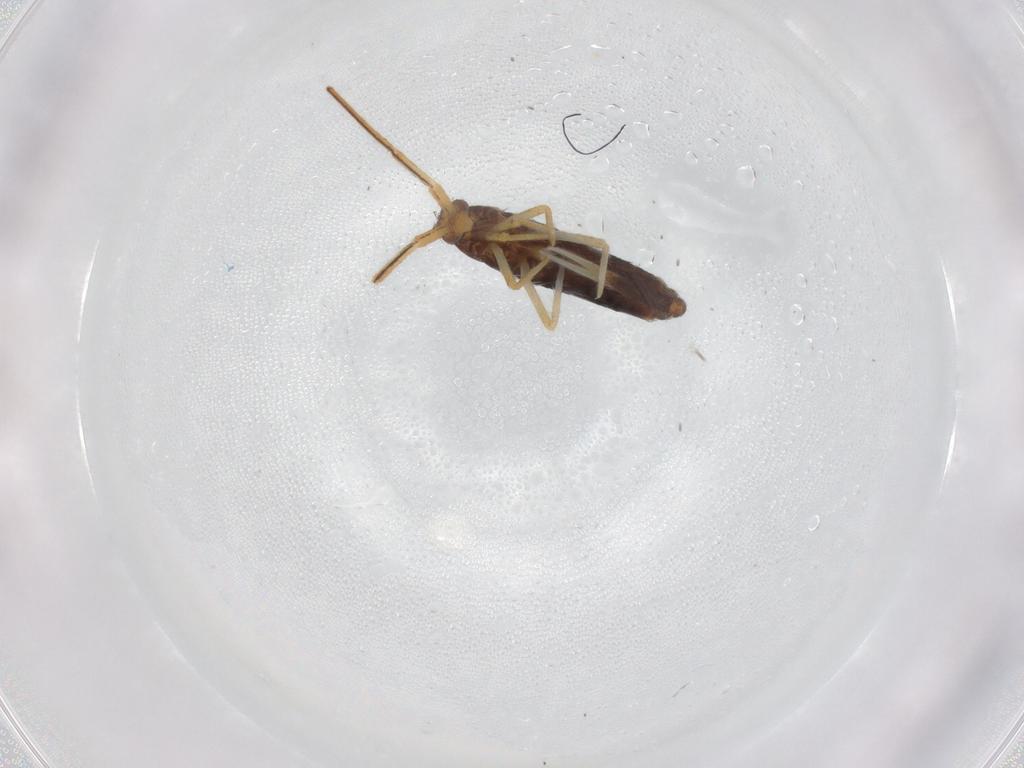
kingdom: Animalia
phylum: Arthropoda
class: Collembola
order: Entomobryomorpha
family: Entomobryidae
